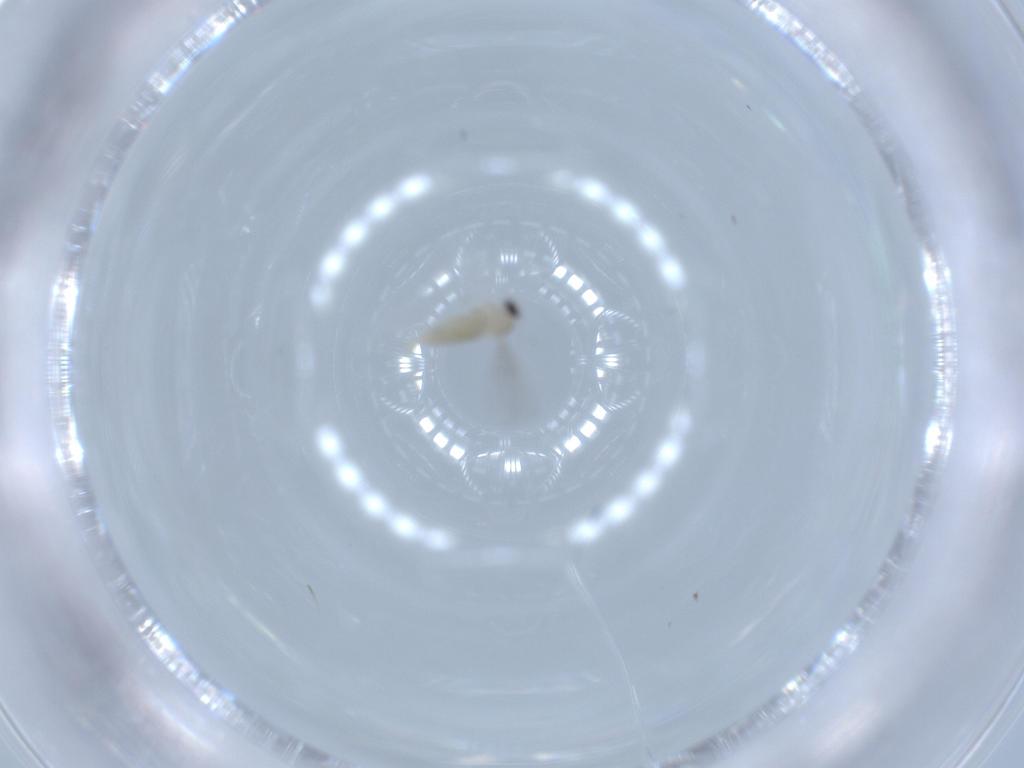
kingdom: Animalia
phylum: Arthropoda
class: Insecta
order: Diptera
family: Cecidomyiidae
